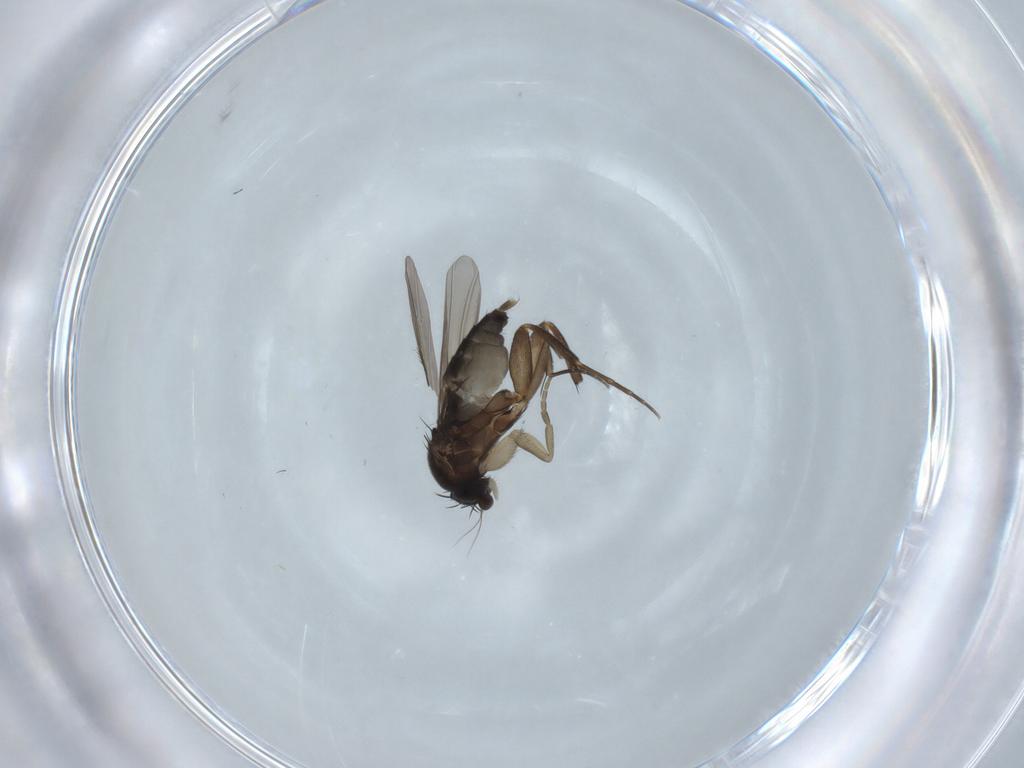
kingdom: Animalia
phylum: Arthropoda
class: Insecta
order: Diptera
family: Phoridae
